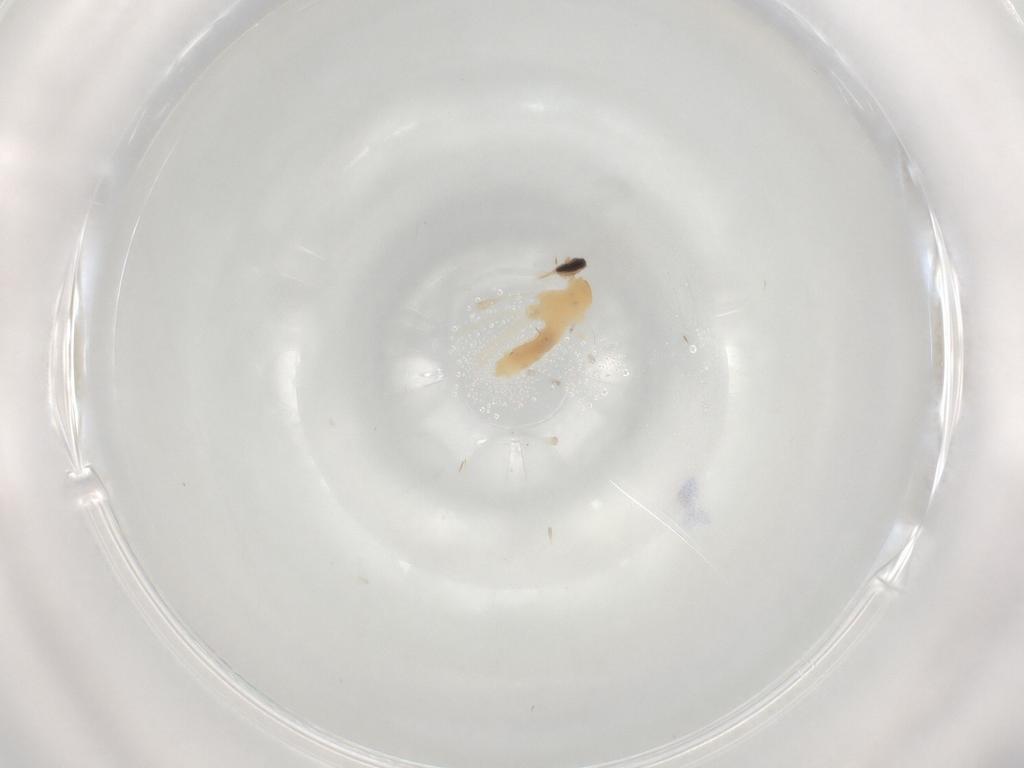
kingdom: Animalia
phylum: Arthropoda
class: Insecta
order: Diptera
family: Cecidomyiidae
